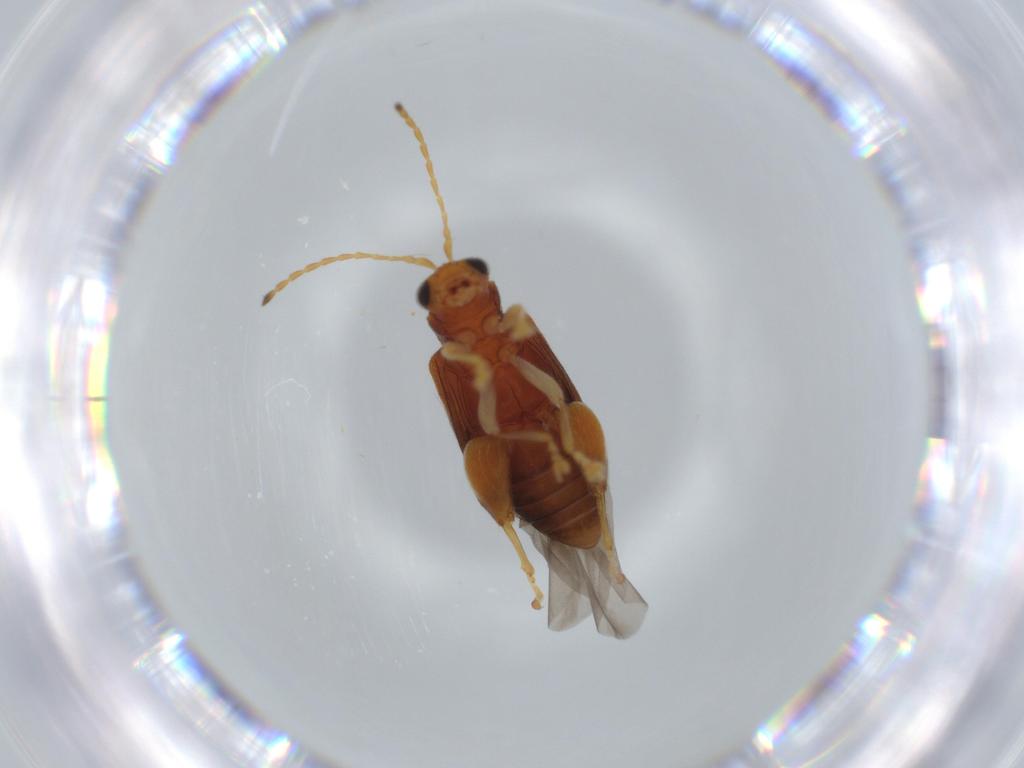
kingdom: Animalia
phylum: Arthropoda
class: Insecta
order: Coleoptera
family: Chrysomelidae
